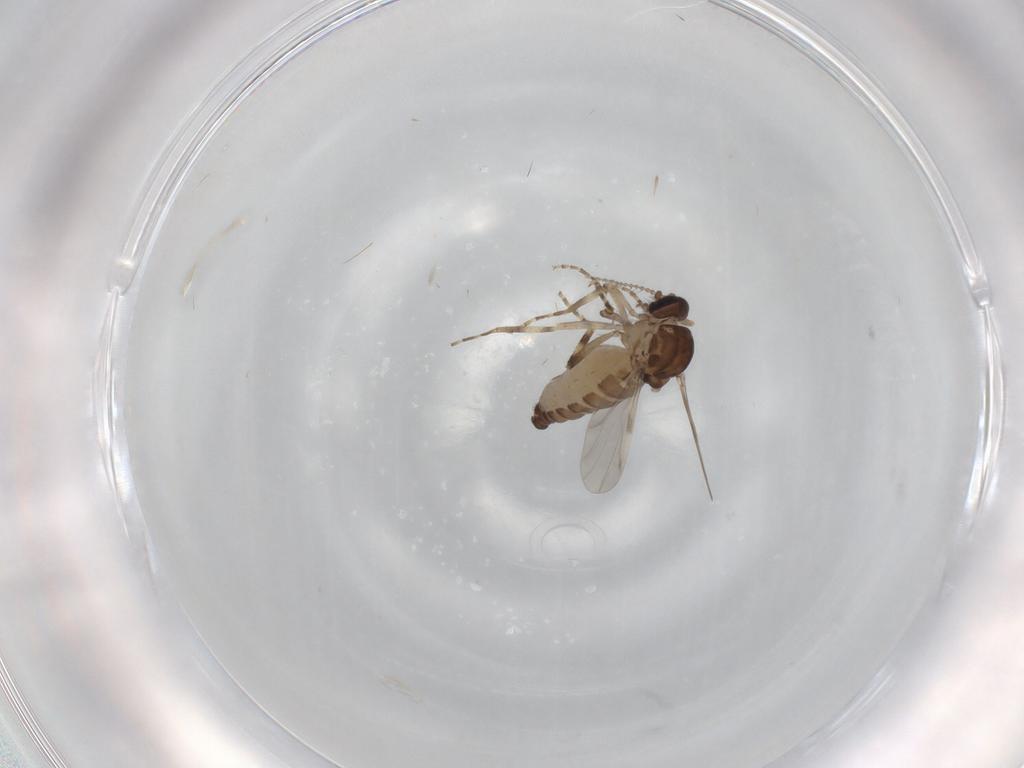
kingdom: Animalia
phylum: Arthropoda
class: Insecta
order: Diptera
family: Ceratopogonidae
